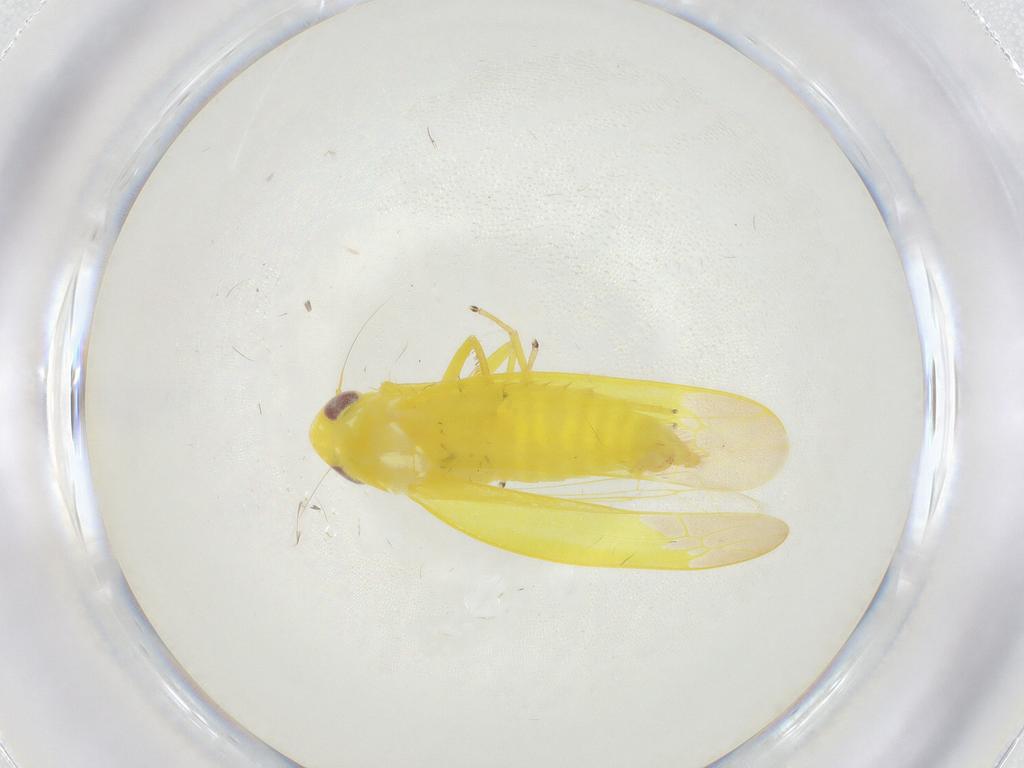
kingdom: Animalia
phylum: Arthropoda
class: Insecta
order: Hemiptera
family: Cicadellidae
